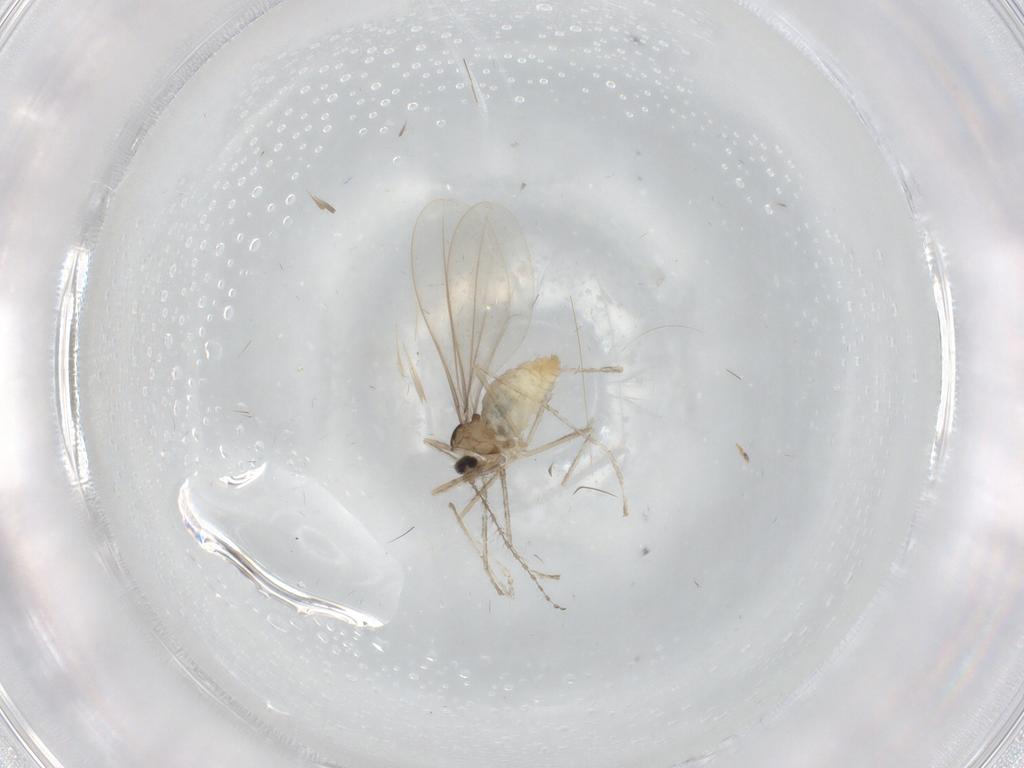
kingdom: Animalia
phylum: Arthropoda
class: Insecta
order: Diptera
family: Cecidomyiidae
